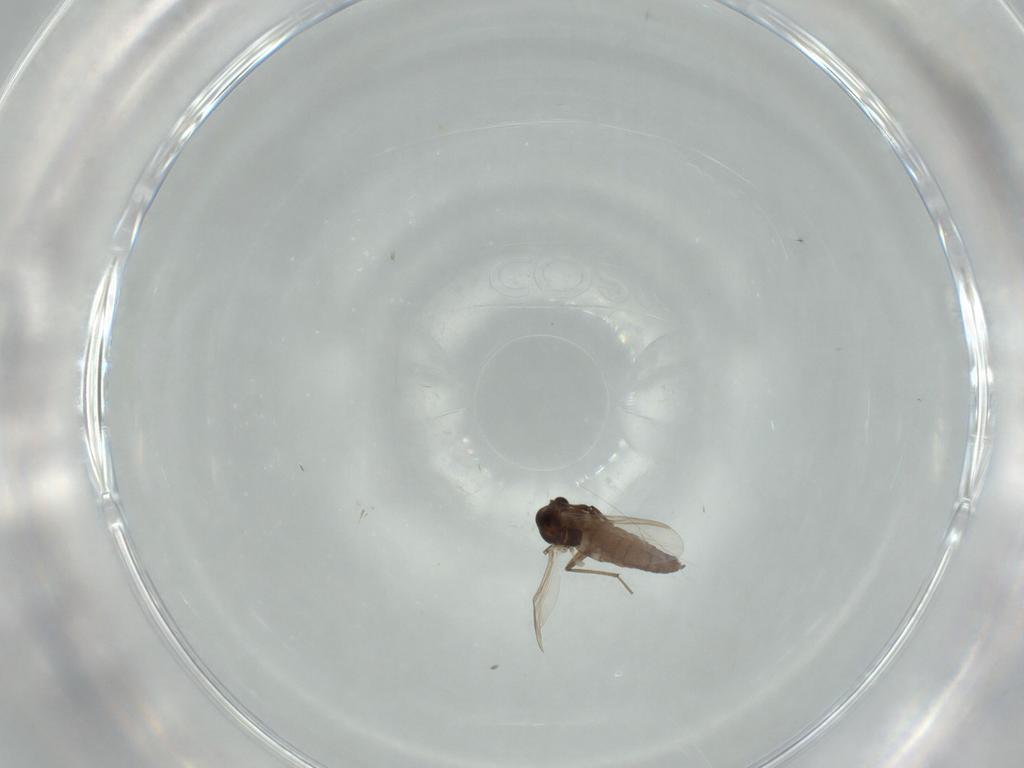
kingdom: Animalia
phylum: Arthropoda
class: Insecta
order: Diptera
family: Chironomidae
